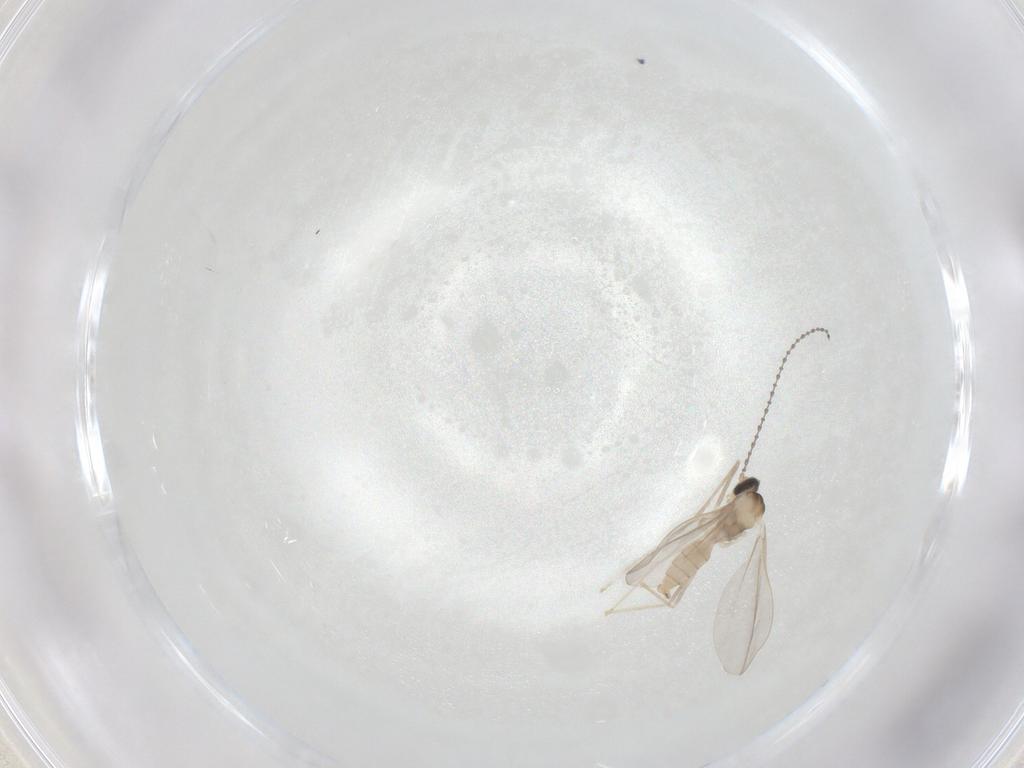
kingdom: Animalia
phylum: Arthropoda
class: Insecta
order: Diptera
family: Cecidomyiidae
